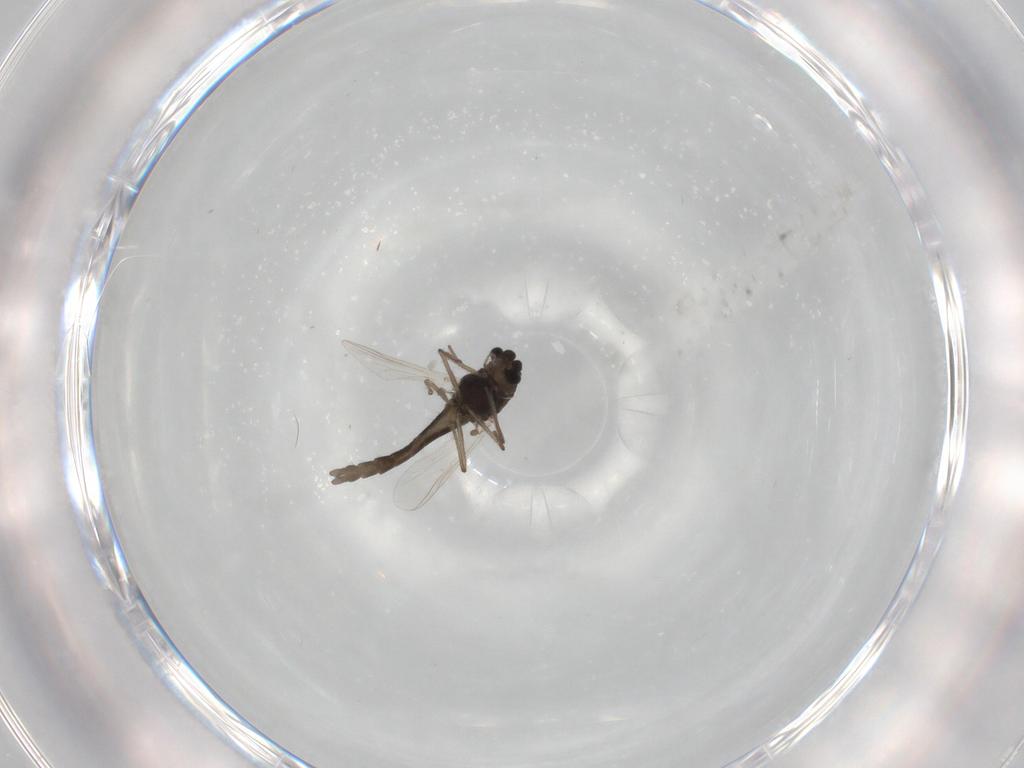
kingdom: Animalia
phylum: Arthropoda
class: Insecta
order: Diptera
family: Chironomidae
